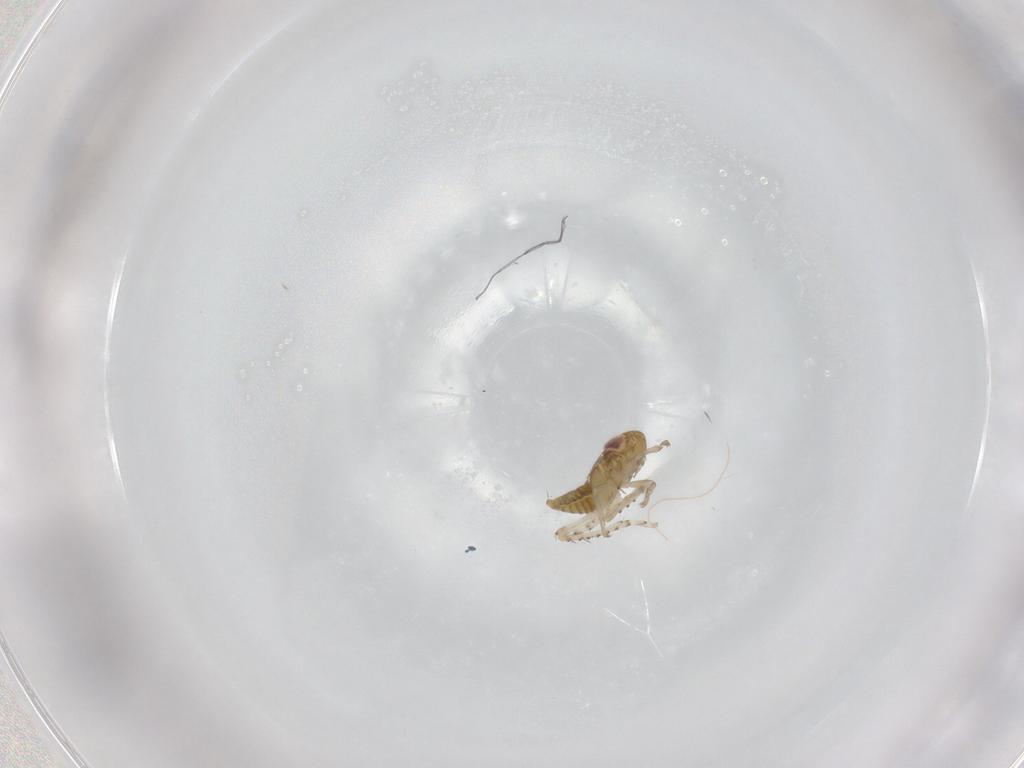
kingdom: Animalia
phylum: Arthropoda
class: Insecta
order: Hemiptera
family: Cicadellidae
